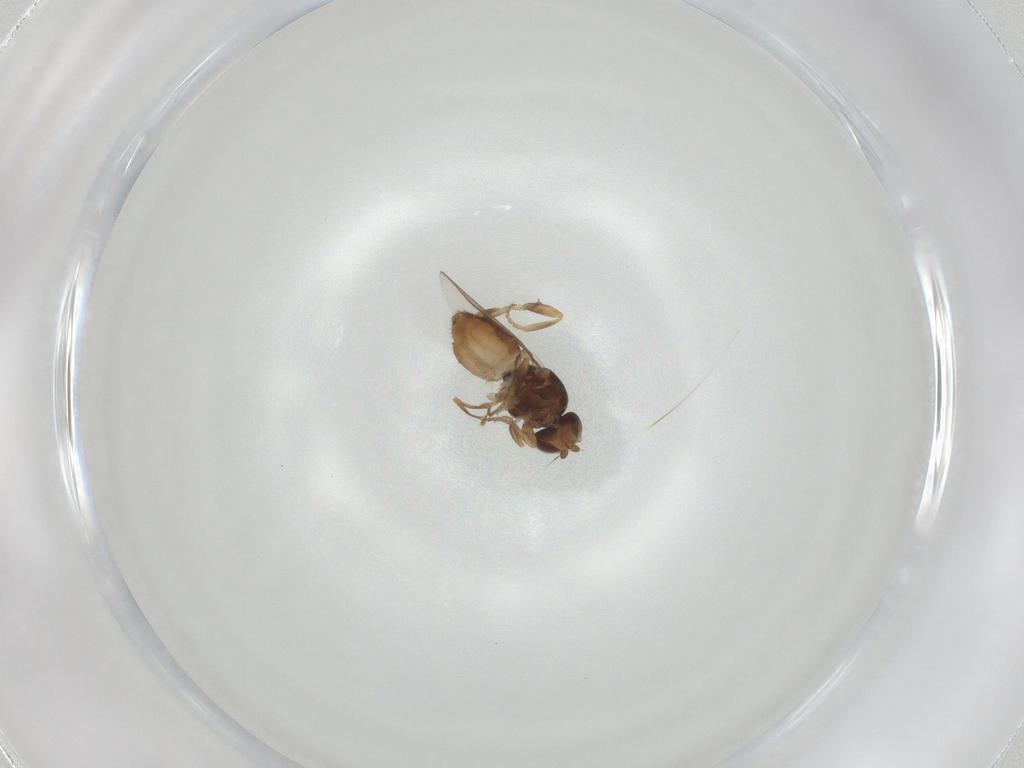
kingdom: Animalia
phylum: Arthropoda
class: Insecta
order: Diptera
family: Chloropidae
